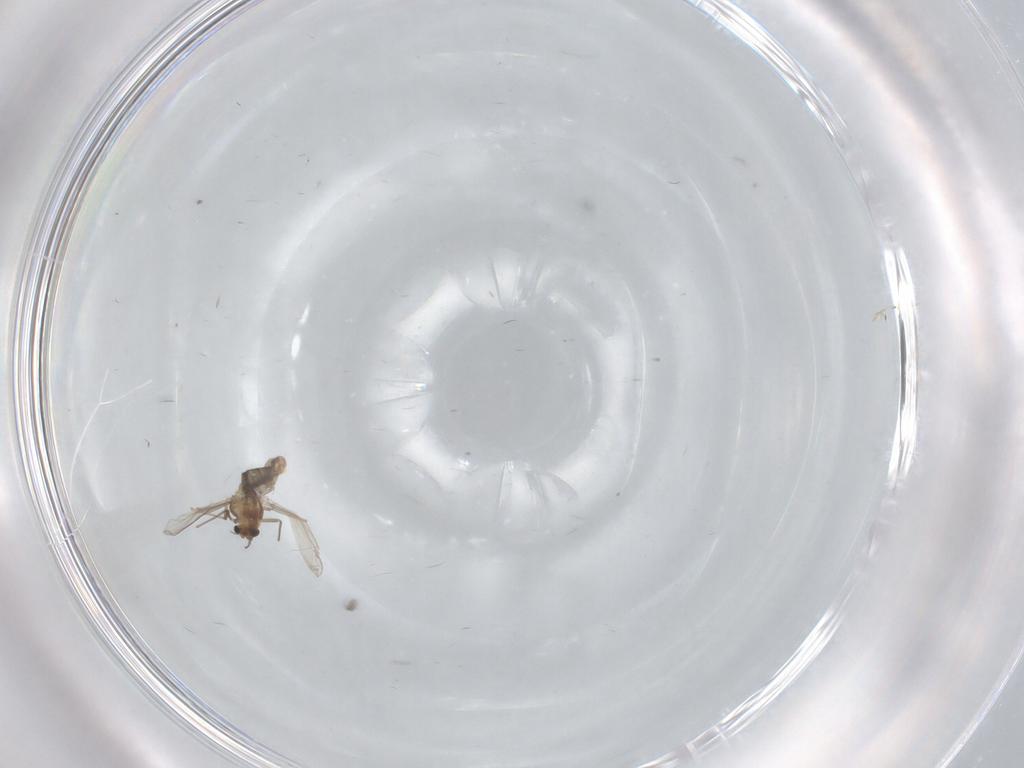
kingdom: Animalia
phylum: Arthropoda
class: Insecta
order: Diptera
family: Chironomidae
